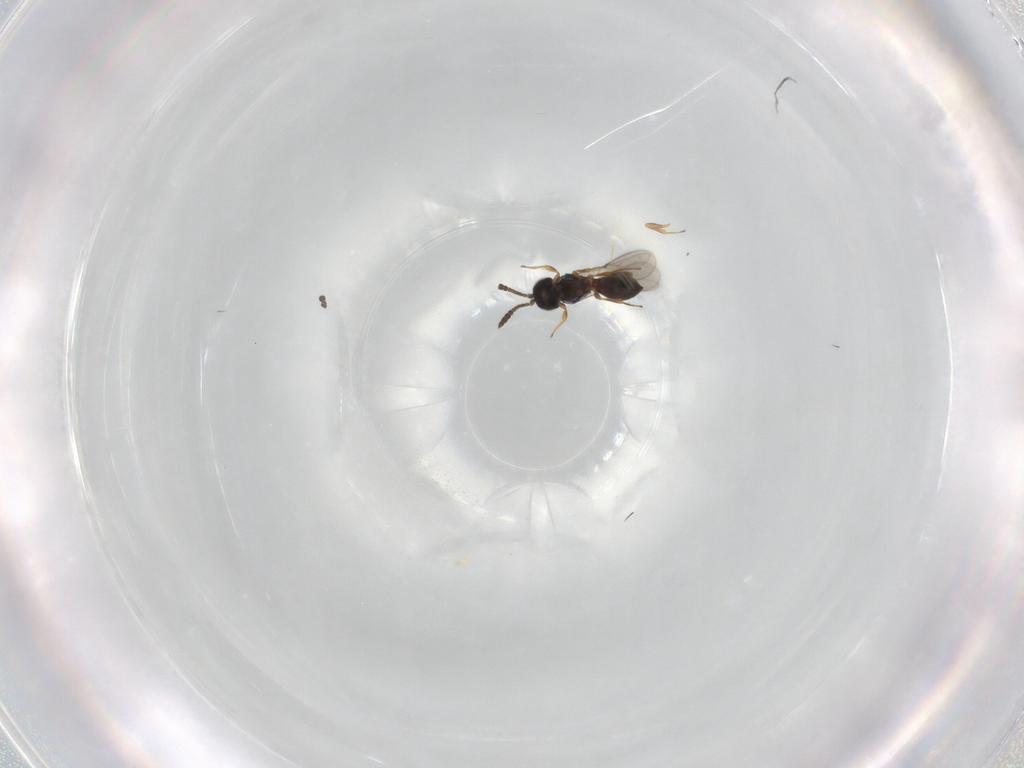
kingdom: Animalia
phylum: Arthropoda
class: Insecta
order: Hymenoptera
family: Scelionidae
